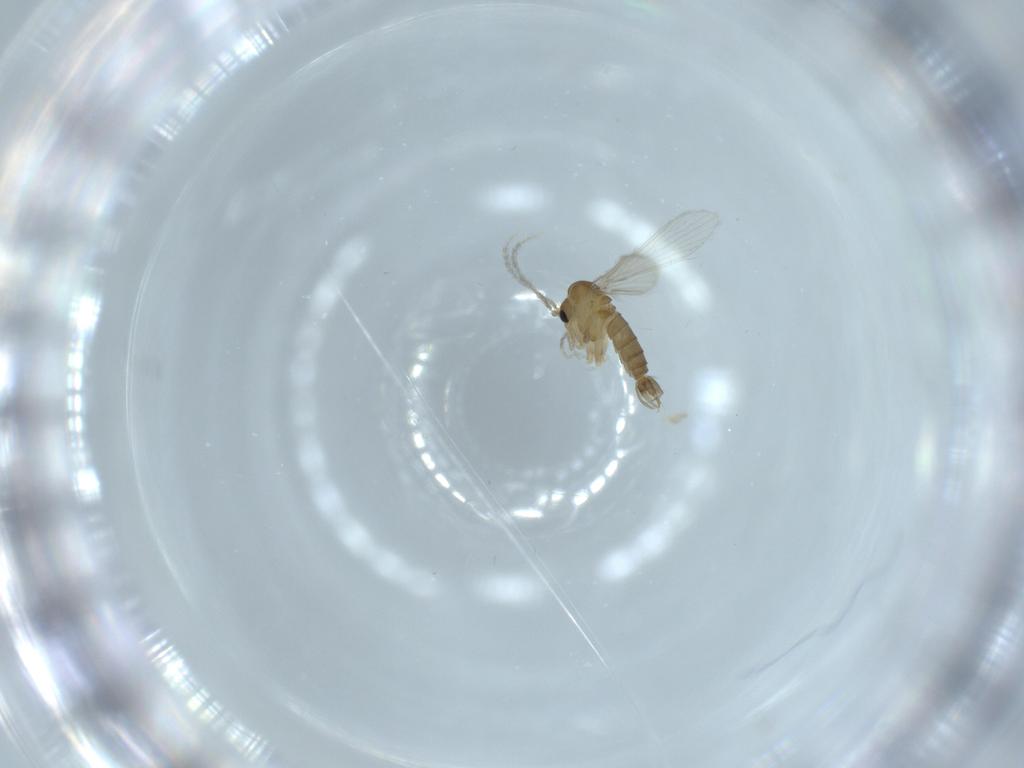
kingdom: Animalia
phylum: Arthropoda
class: Insecta
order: Diptera
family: Psychodidae
